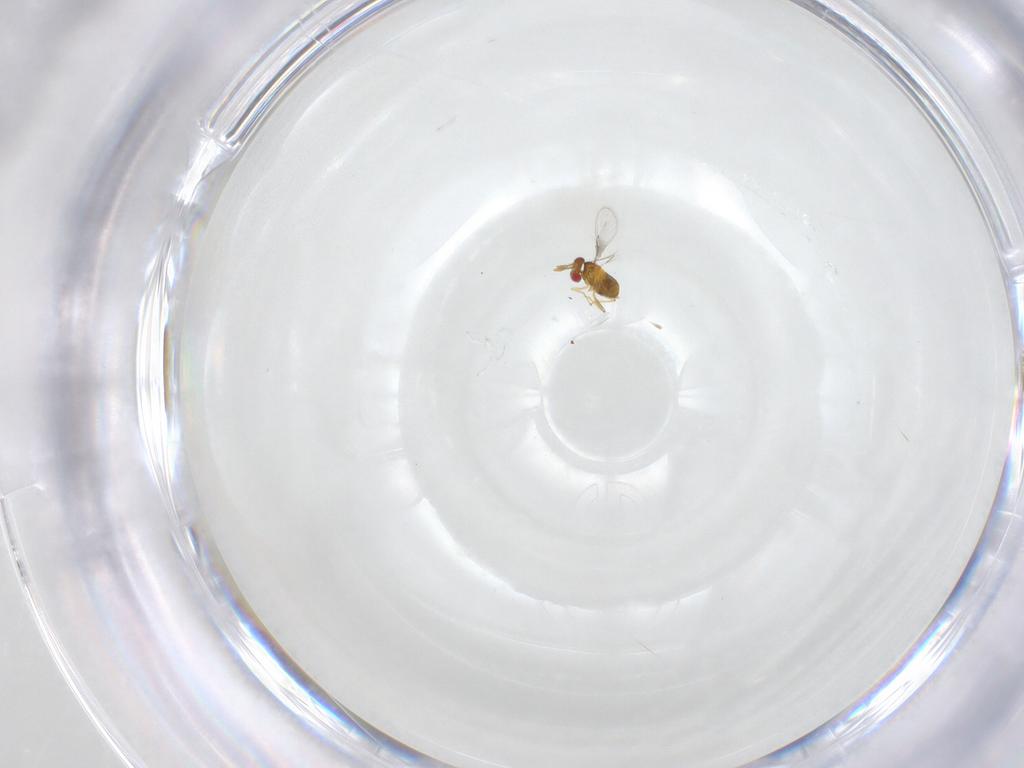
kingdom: Animalia
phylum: Arthropoda
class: Insecta
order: Hymenoptera
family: Trichogrammatidae
